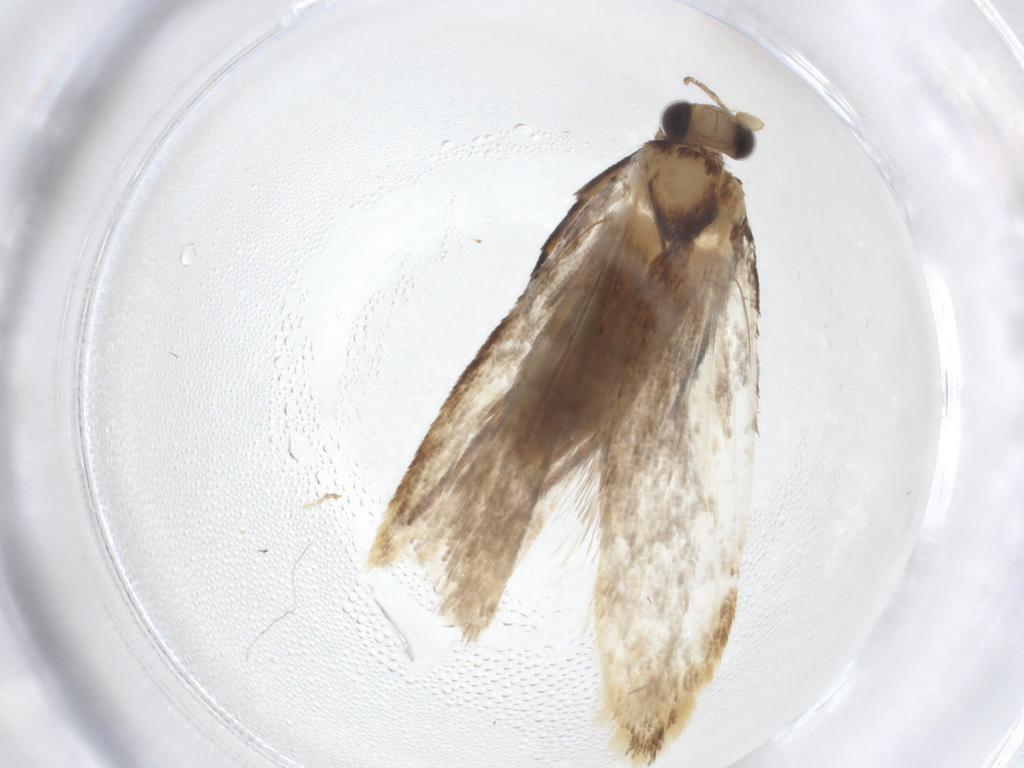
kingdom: Animalia
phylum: Arthropoda
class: Insecta
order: Lepidoptera
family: Tineidae
